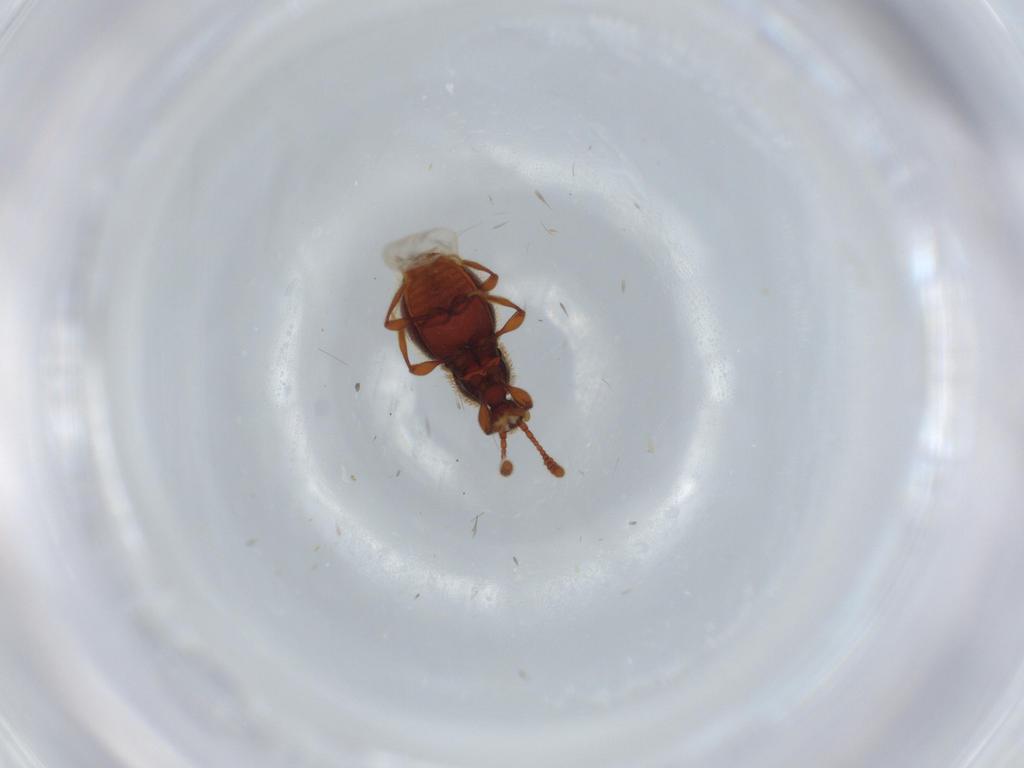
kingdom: Animalia
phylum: Arthropoda
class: Insecta
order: Coleoptera
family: Staphylinidae
